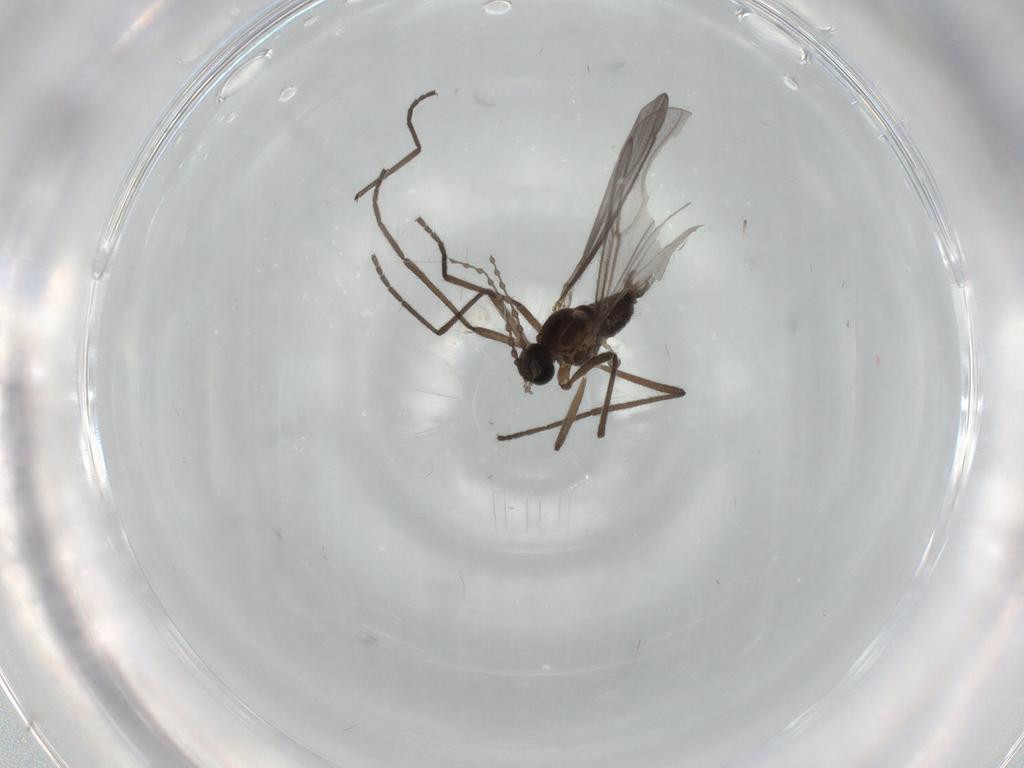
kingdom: Animalia
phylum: Arthropoda
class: Insecta
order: Diptera
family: Cecidomyiidae
